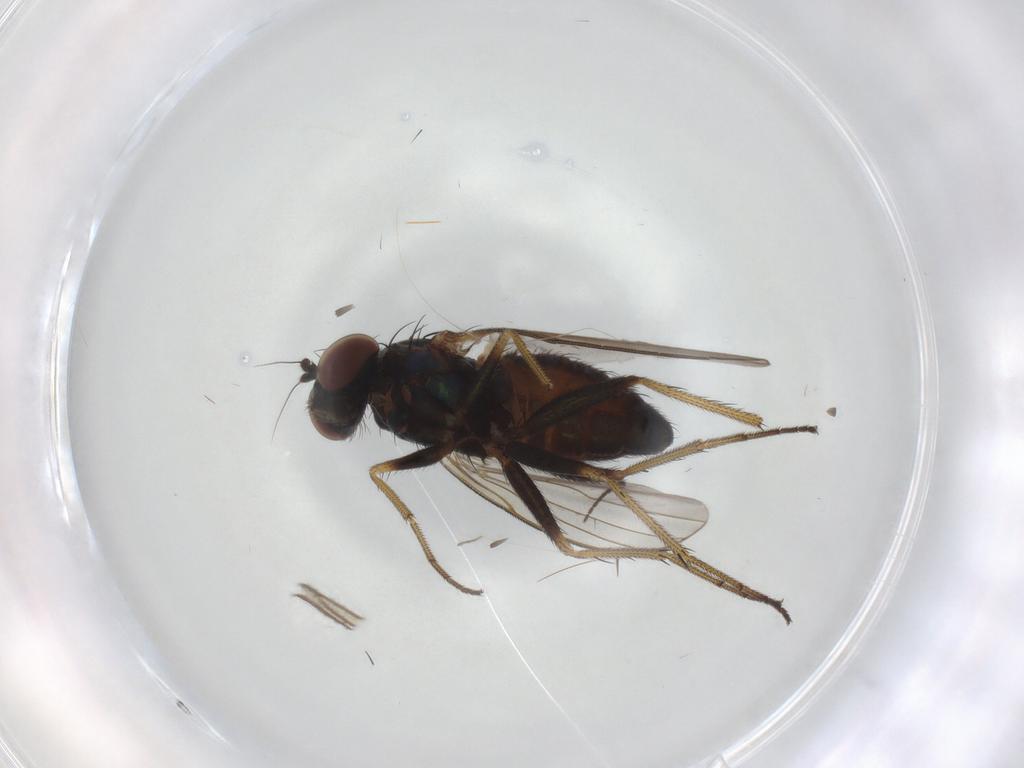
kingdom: Animalia
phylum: Arthropoda
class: Insecta
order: Diptera
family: Dolichopodidae
